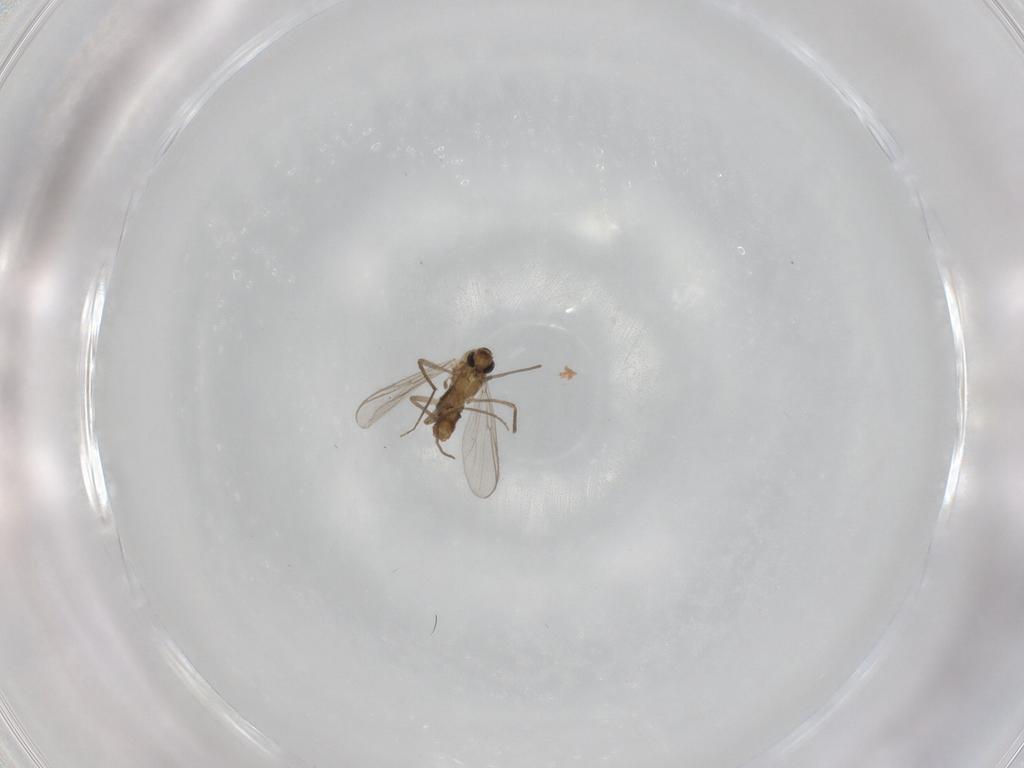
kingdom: Animalia
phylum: Arthropoda
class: Insecta
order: Diptera
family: Chironomidae
